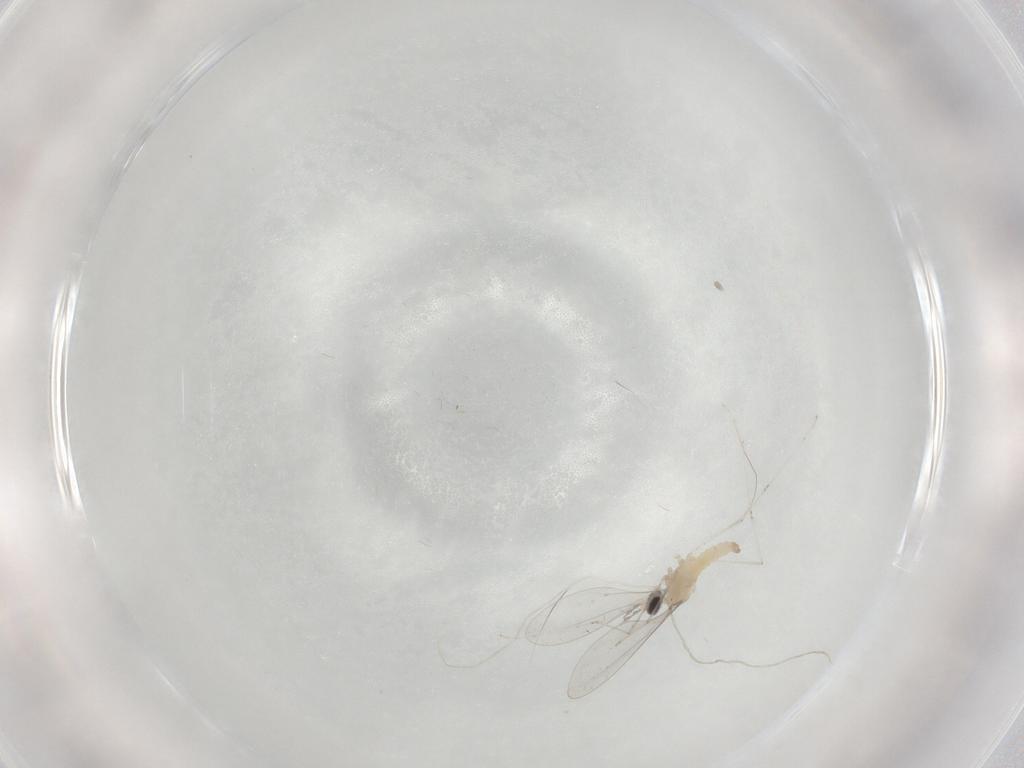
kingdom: Animalia
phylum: Arthropoda
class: Insecta
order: Diptera
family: Cecidomyiidae
